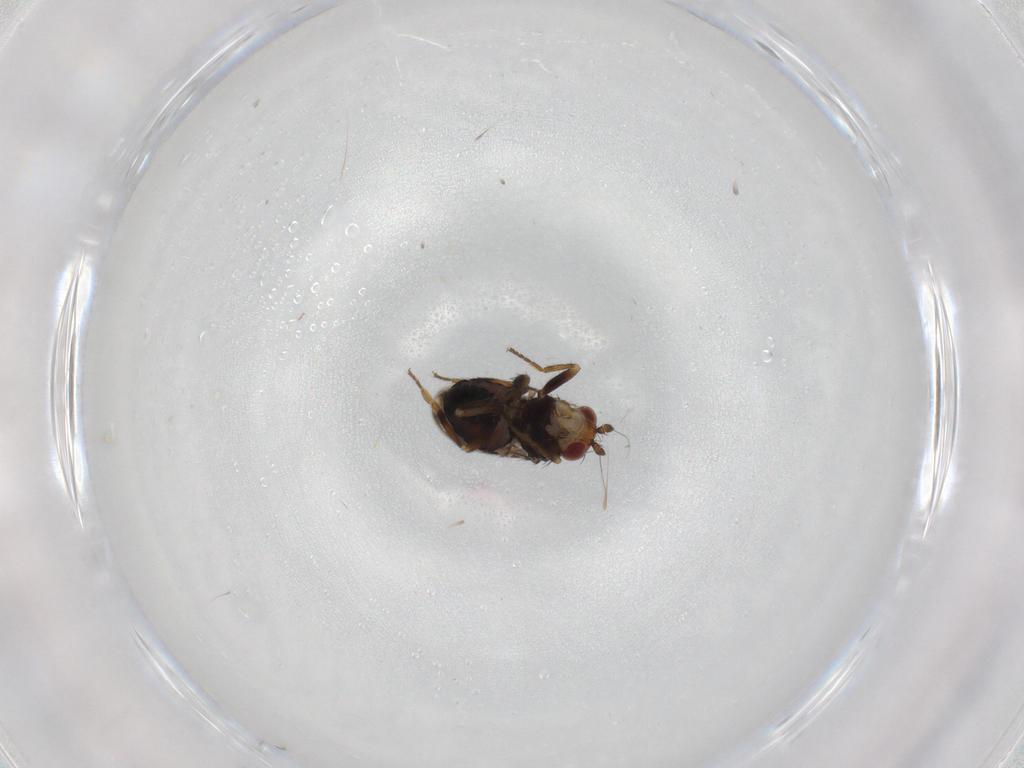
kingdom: Animalia
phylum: Arthropoda
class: Insecta
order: Diptera
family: Sphaeroceridae
